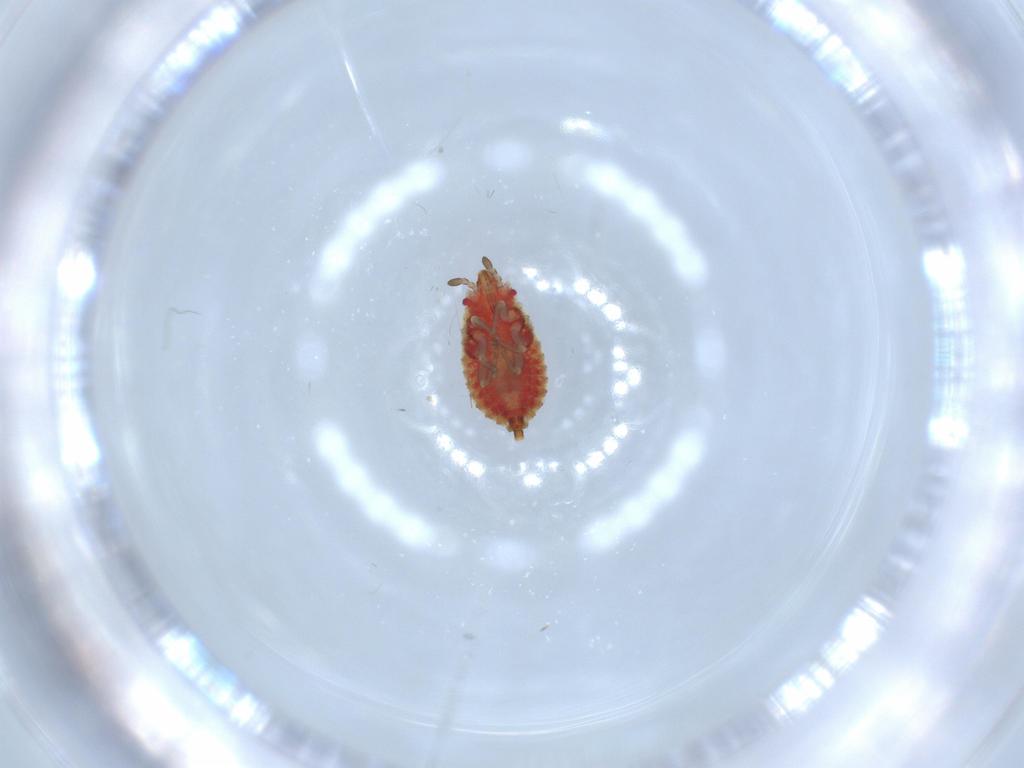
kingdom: Animalia
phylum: Arthropoda
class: Insecta
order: Hemiptera
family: Aradidae
